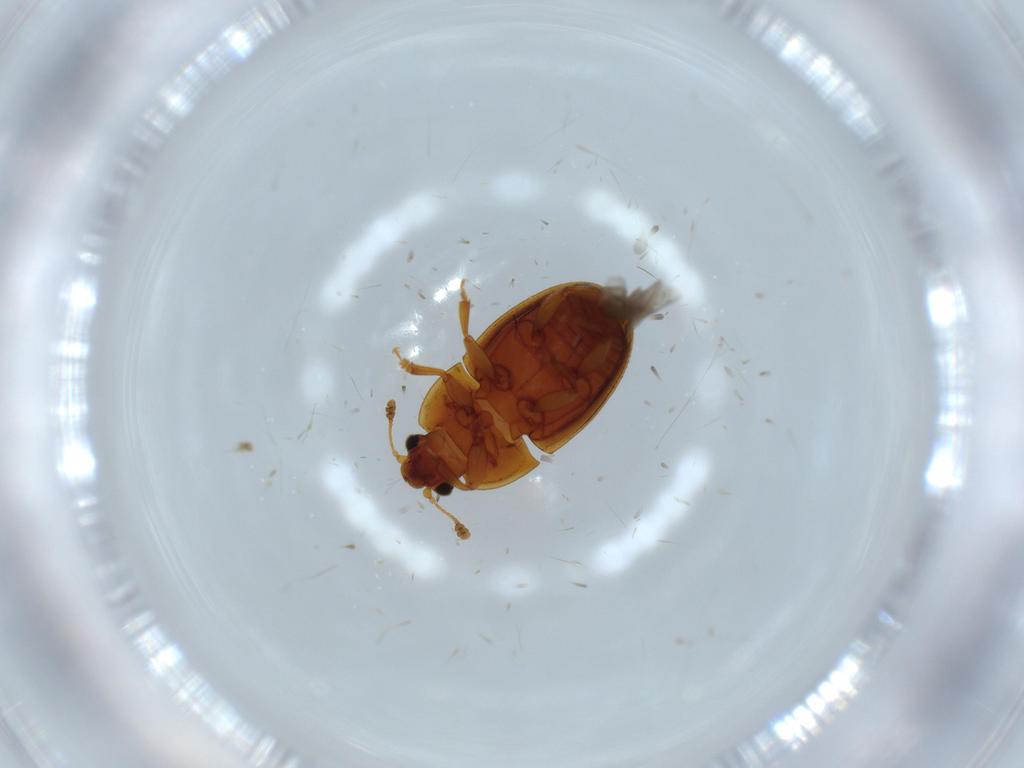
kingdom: Animalia
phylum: Arthropoda
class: Insecta
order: Coleoptera
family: Nitidulidae
